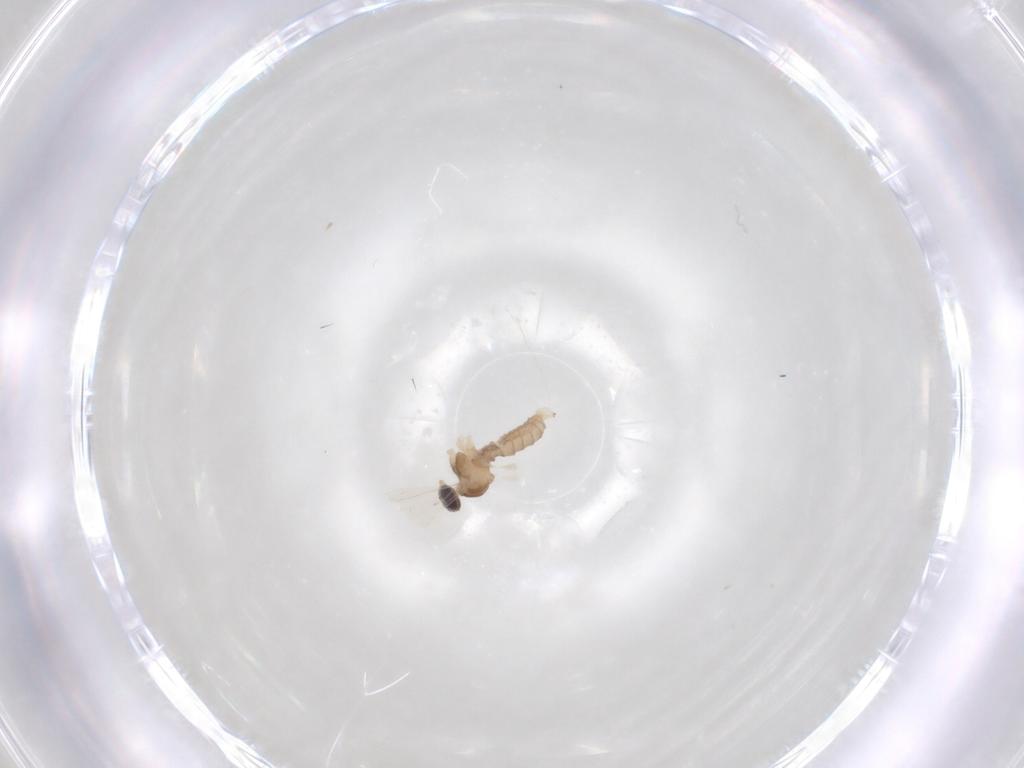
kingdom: Animalia
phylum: Arthropoda
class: Insecta
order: Diptera
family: Cecidomyiidae
